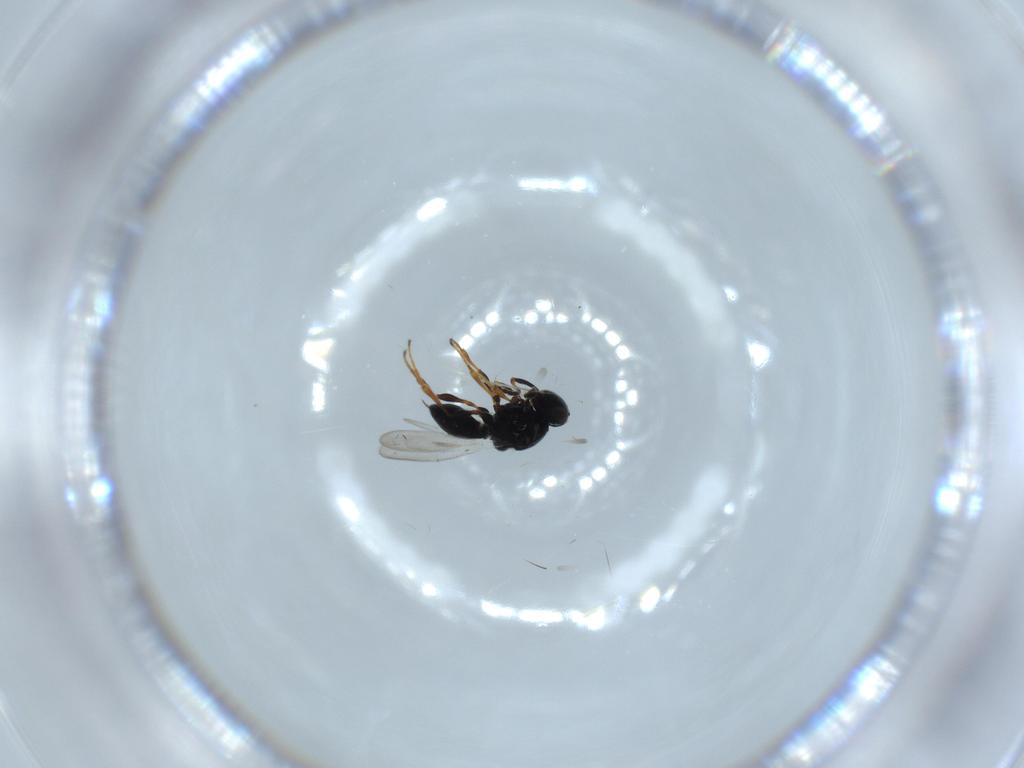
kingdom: Animalia
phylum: Arthropoda
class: Insecta
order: Hymenoptera
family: Platygastridae
